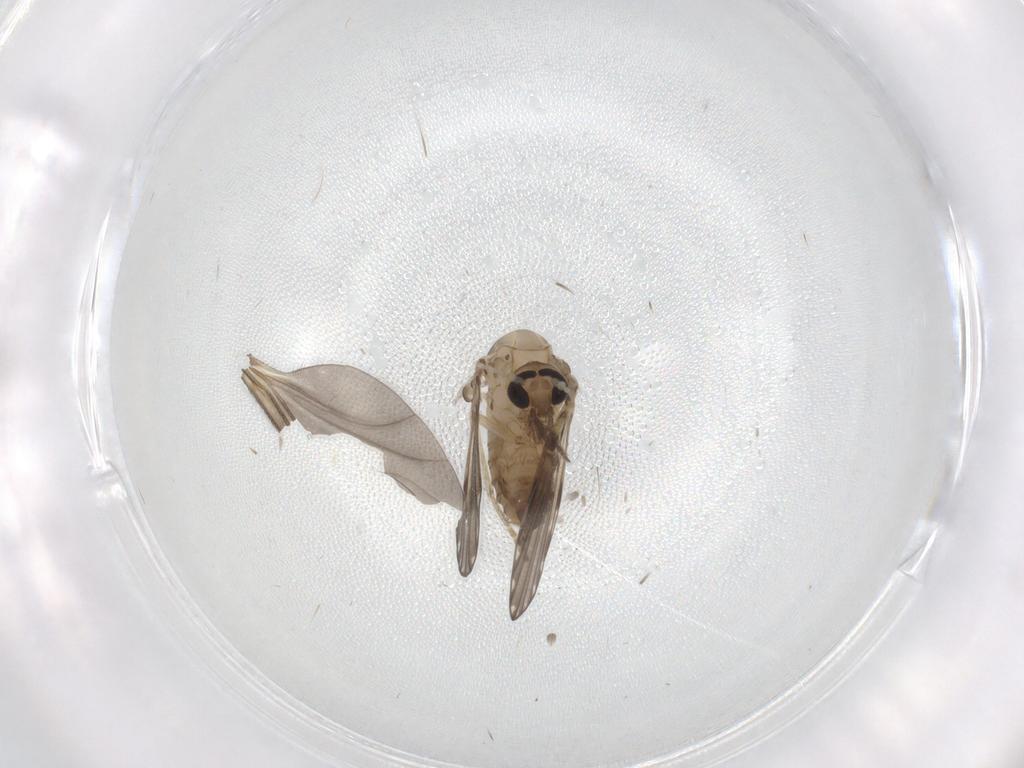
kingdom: Animalia
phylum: Arthropoda
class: Insecta
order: Diptera
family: Psychodidae
